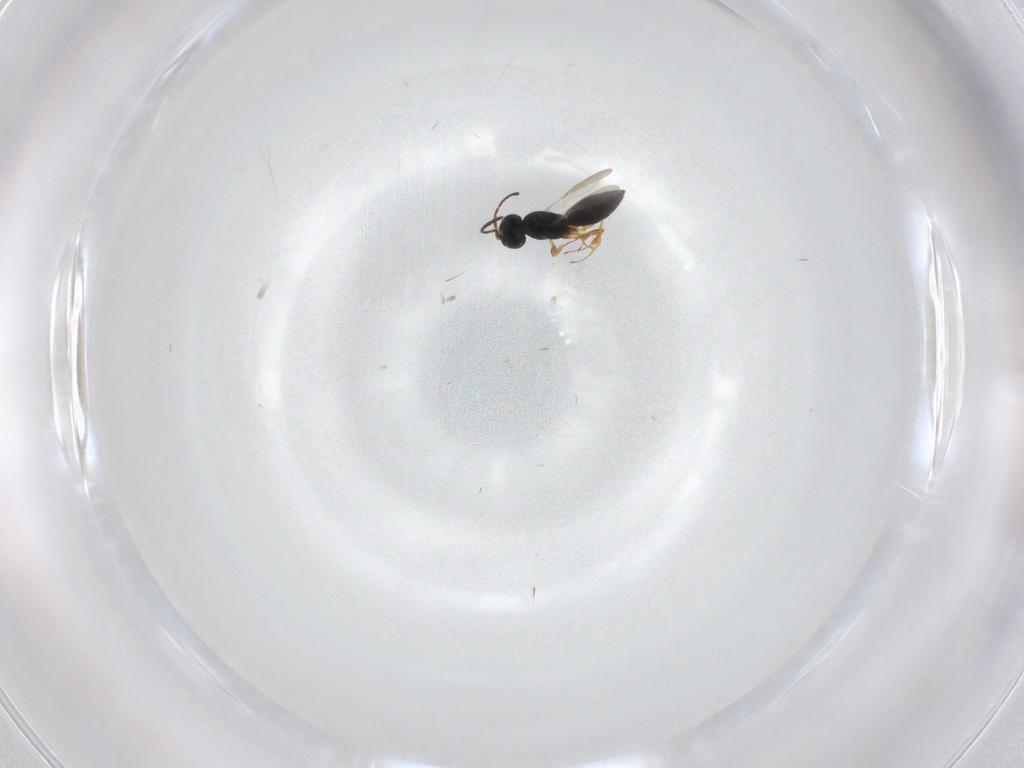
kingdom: Animalia
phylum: Arthropoda
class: Insecta
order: Hymenoptera
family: Scelionidae
